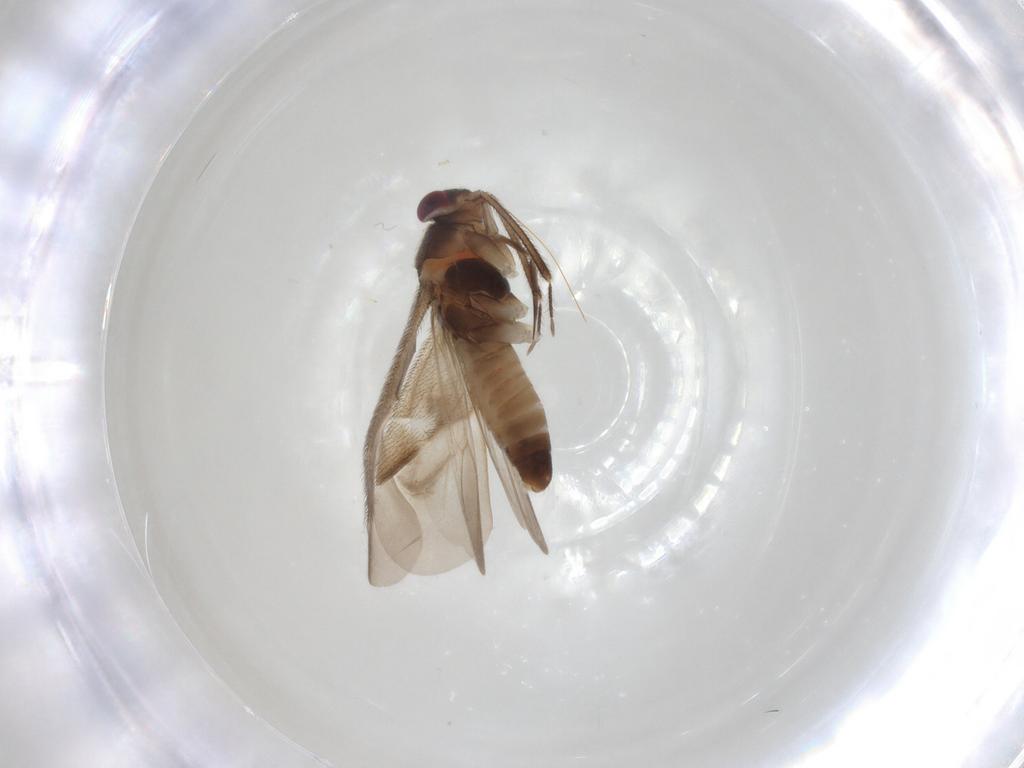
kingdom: Animalia
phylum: Arthropoda
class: Insecta
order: Hemiptera
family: Miridae
